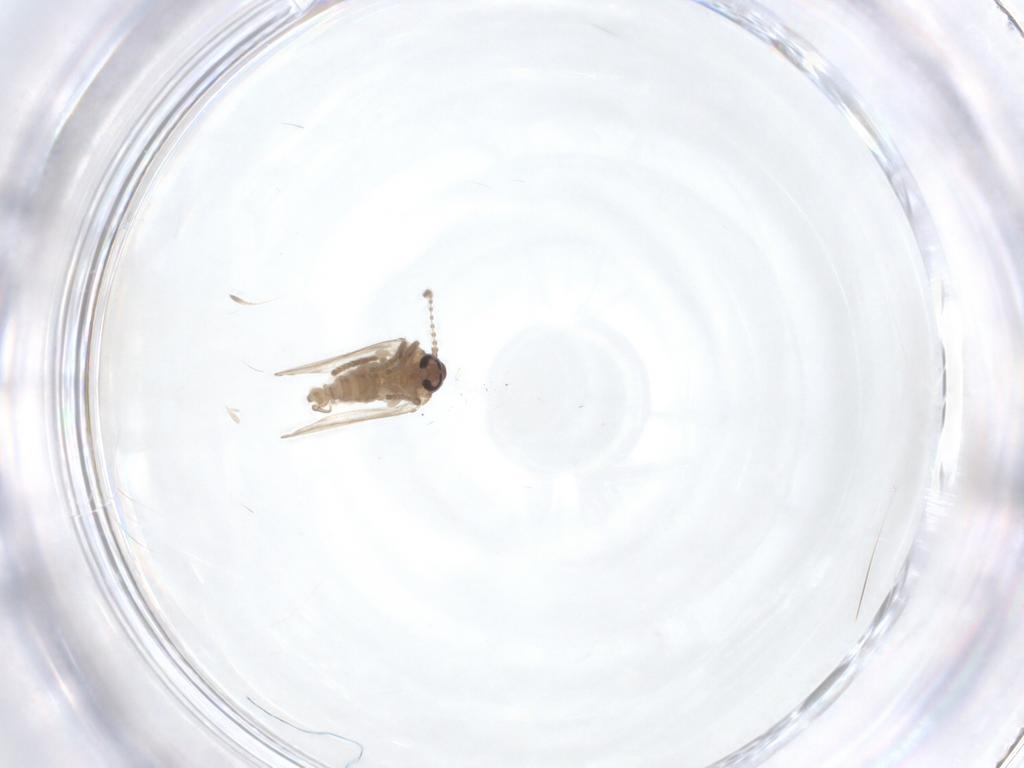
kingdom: Animalia
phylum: Arthropoda
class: Insecta
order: Diptera
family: Psychodidae
